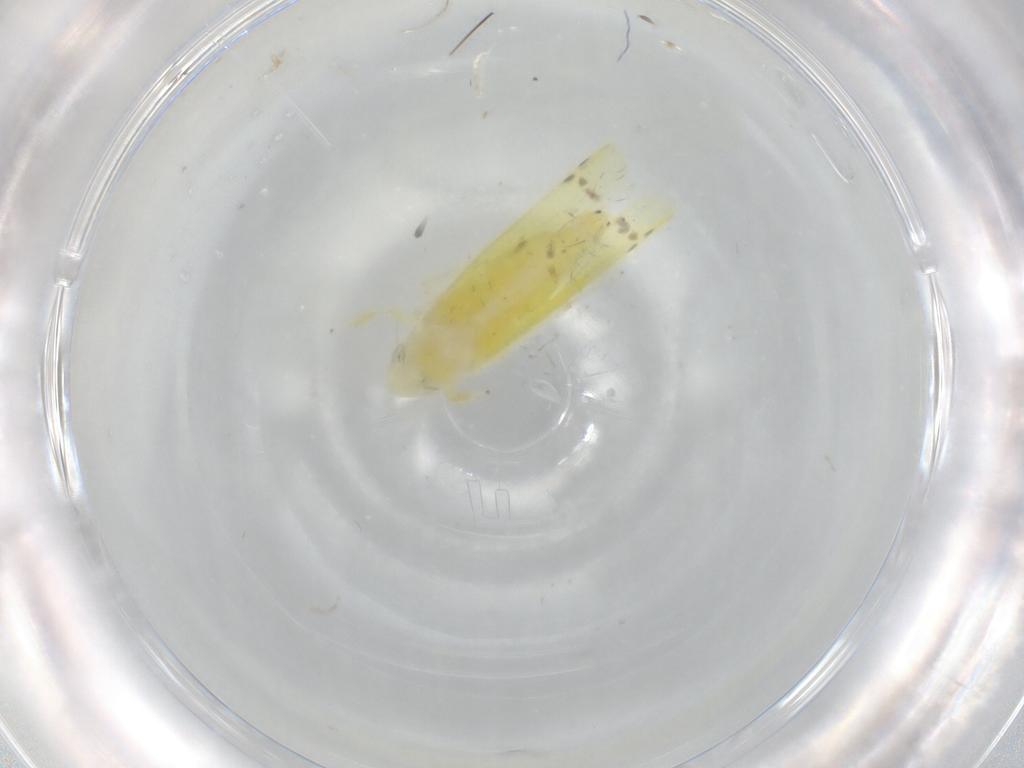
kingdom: Animalia
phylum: Arthropoda
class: Insecta
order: Hemiptera
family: Cicadellidae
